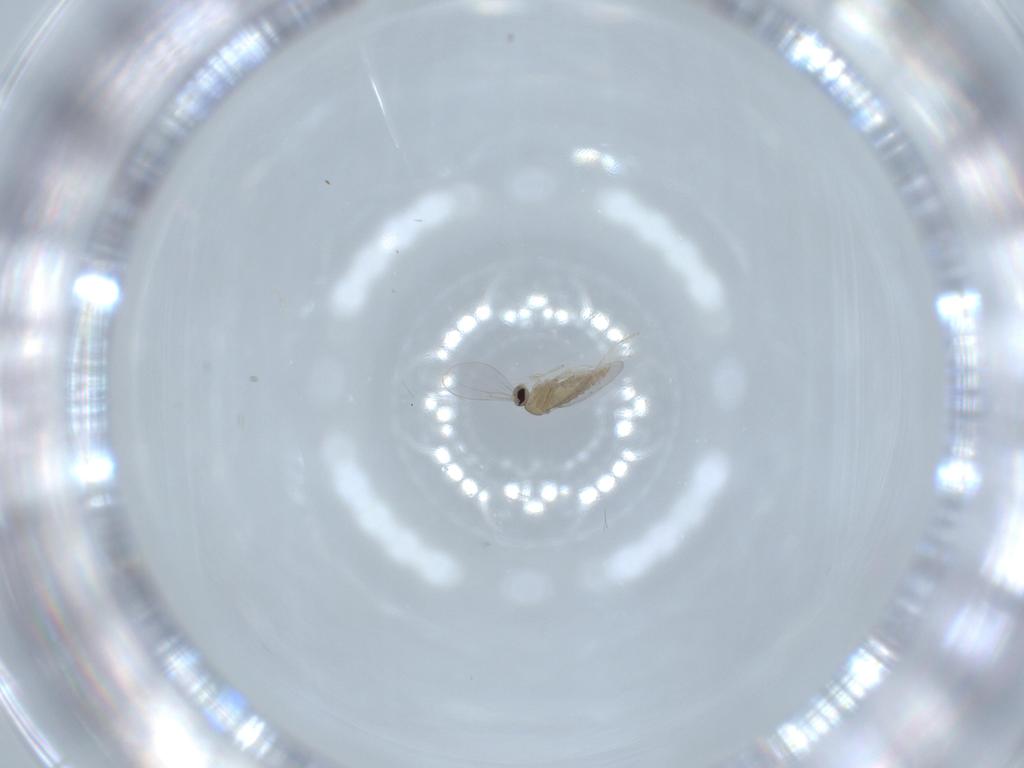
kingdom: Animalia
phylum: Arthropoda
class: Insecta
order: Diptera
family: Cecidomyiidae
